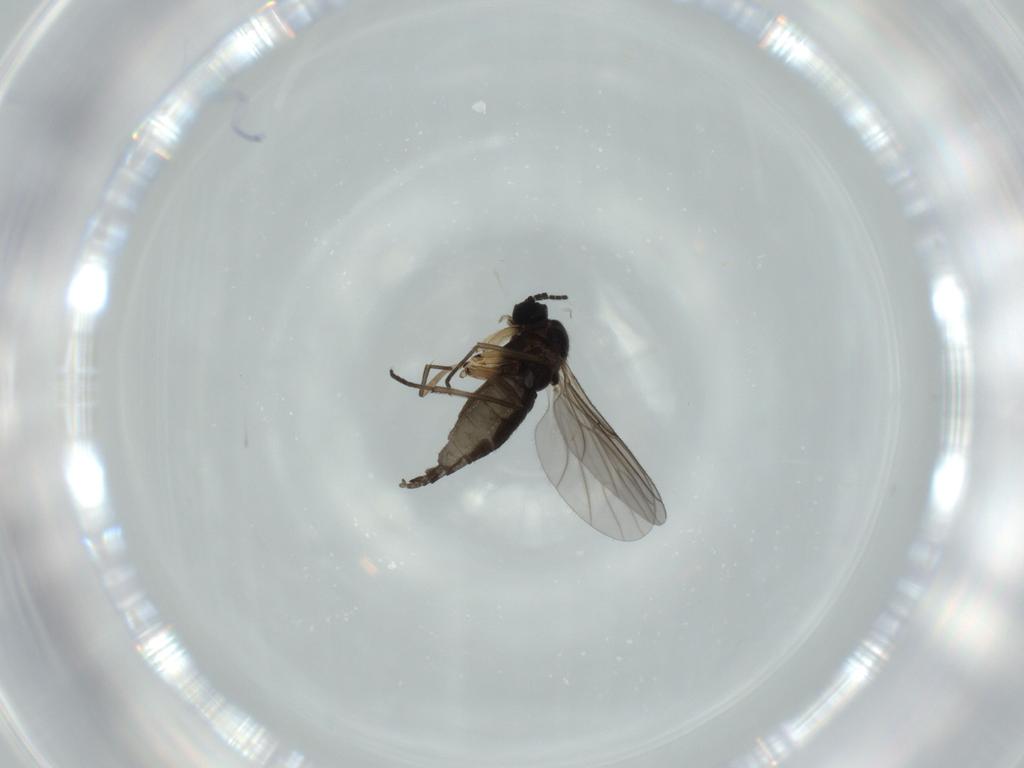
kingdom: Animalia
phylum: Arthropoda
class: Insecta
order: Diptera
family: Sciaridae
